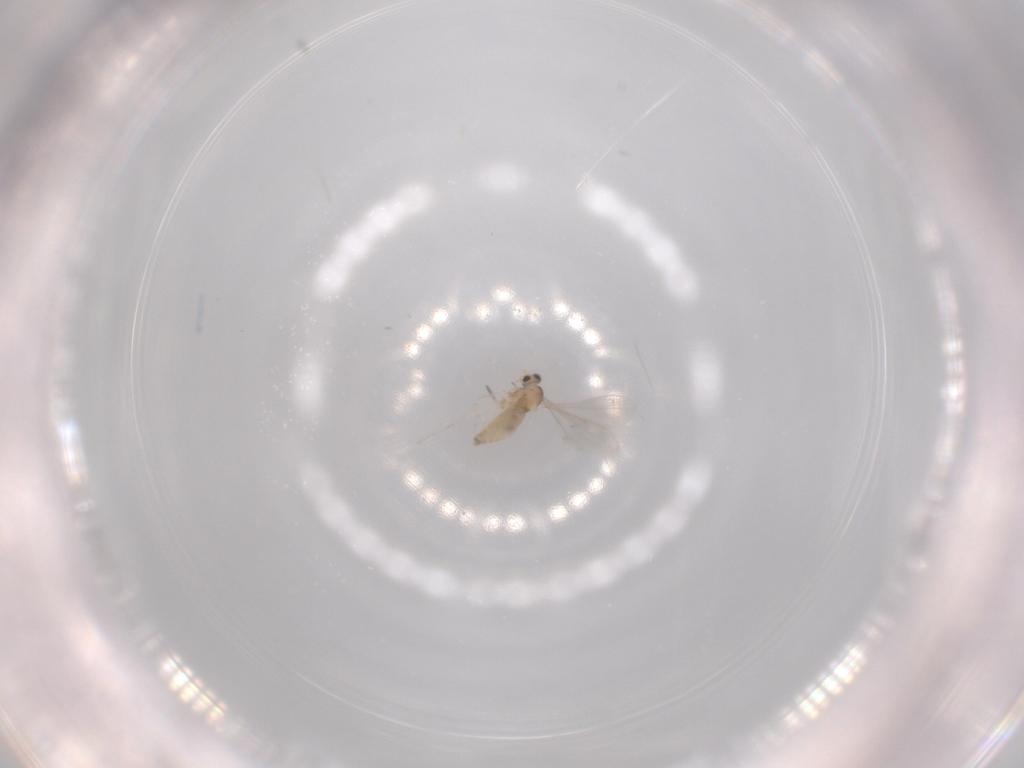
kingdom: Animalia
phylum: Arthropoda
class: Insecta
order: Diptera
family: Cecidomyiidae
